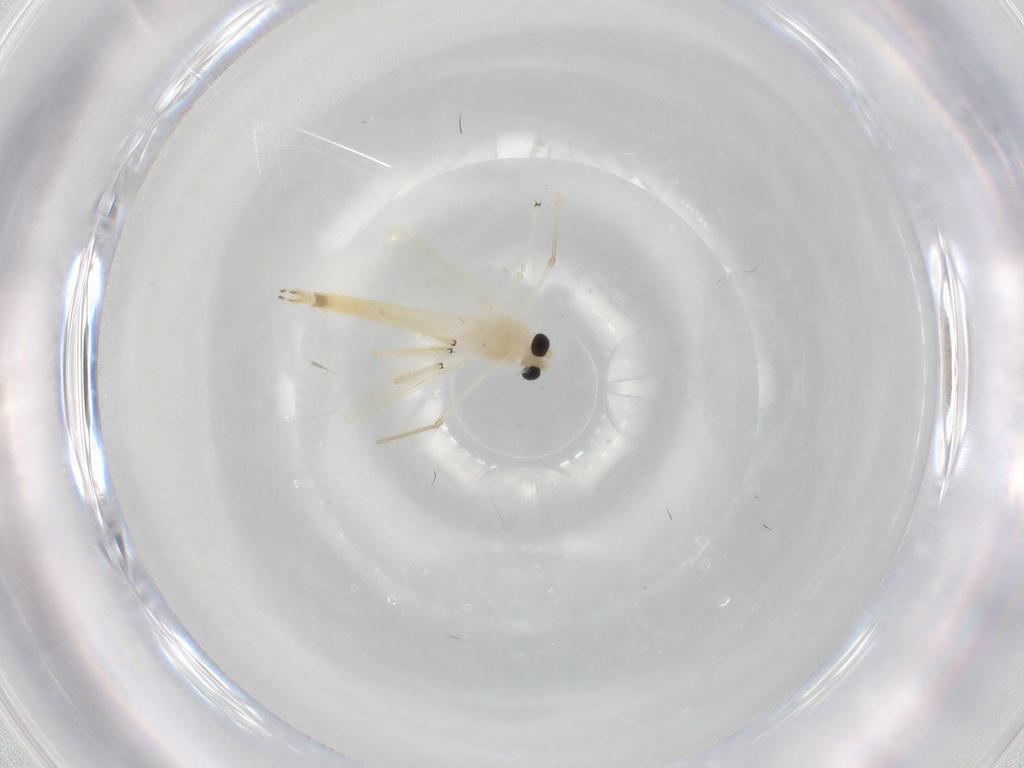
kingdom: Animalia
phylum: Arthropoda
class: Insecta
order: Diptera
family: Chironomidae
